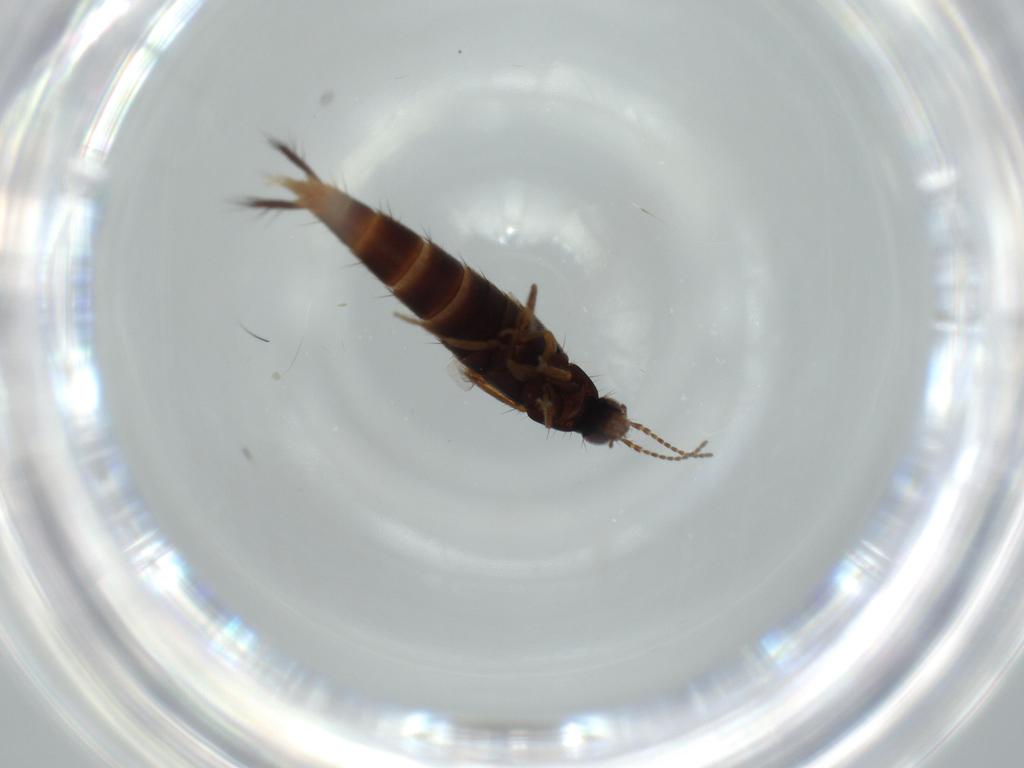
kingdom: Animalia
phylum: Arthropoda
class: Insecta
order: Coleoptera
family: Staphylinidae
